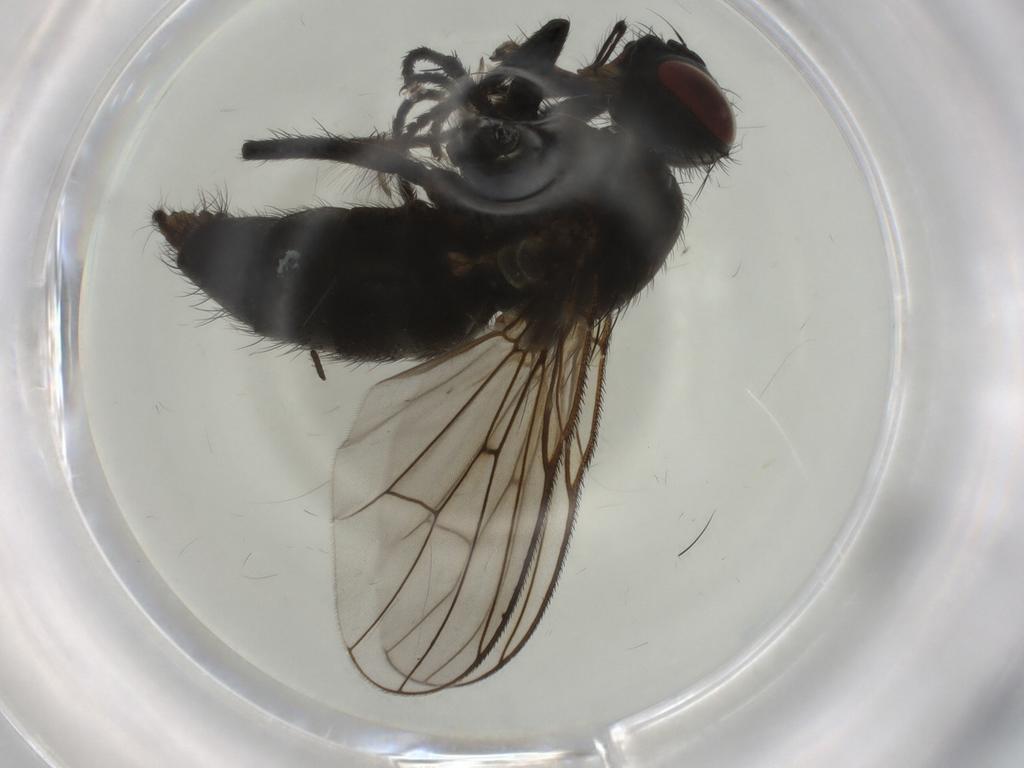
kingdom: Animalia
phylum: Arthropoda
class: Insecta
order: Diptera
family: Muscidae
